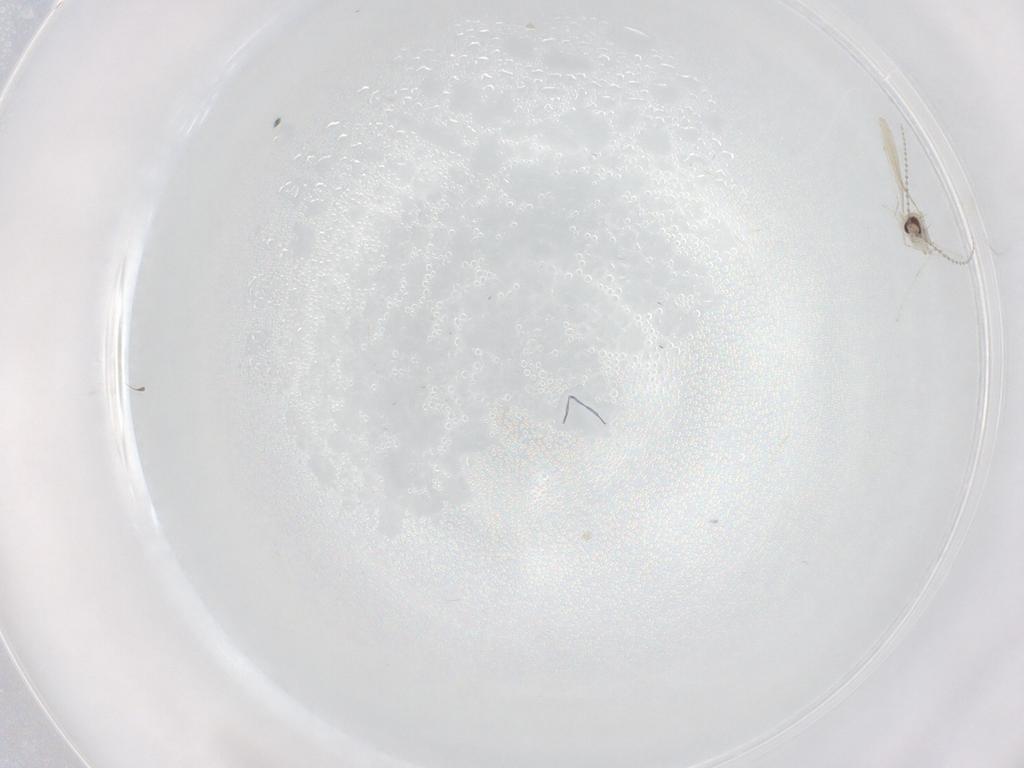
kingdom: Animalia
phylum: Arthropoda
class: Insecta
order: Diptera
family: Cecidomyiidae
